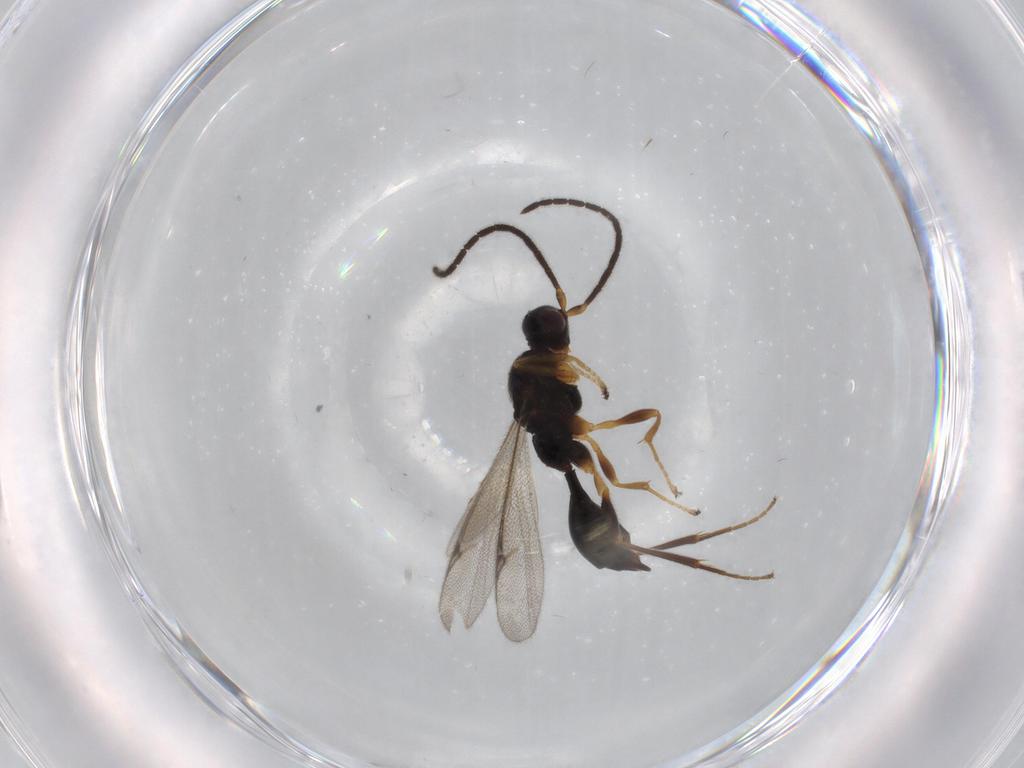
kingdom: Animalia
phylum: Arthropoda
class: Insecta
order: Hymenoptera
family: Proctotrupidae
